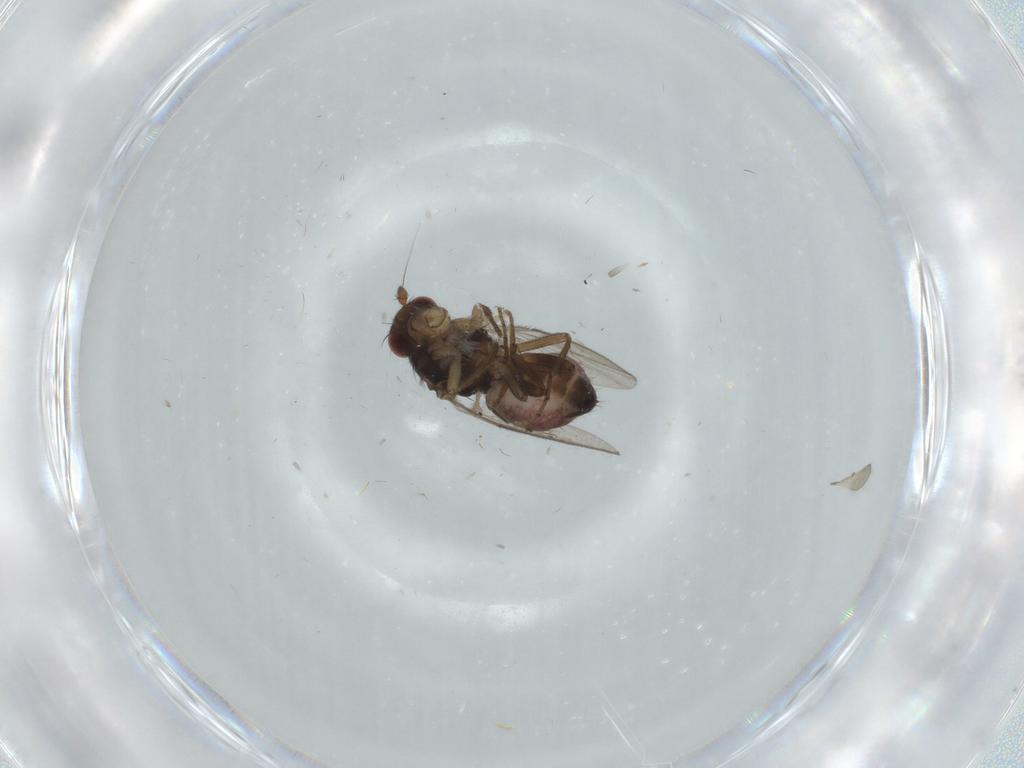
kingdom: Animalia
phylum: Arthropoda
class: Insecta
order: Diptera
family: Sphaeroceridae
